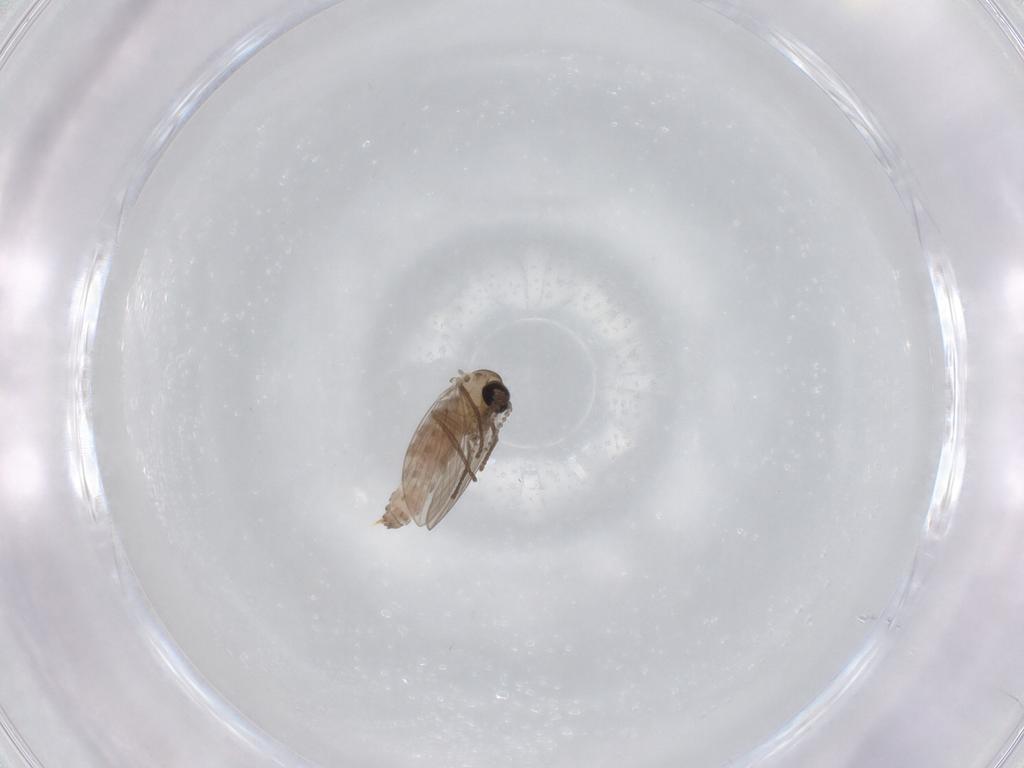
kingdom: Animalia
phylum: Arthropoda
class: Insecta
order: Diptera
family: Psychodidae
